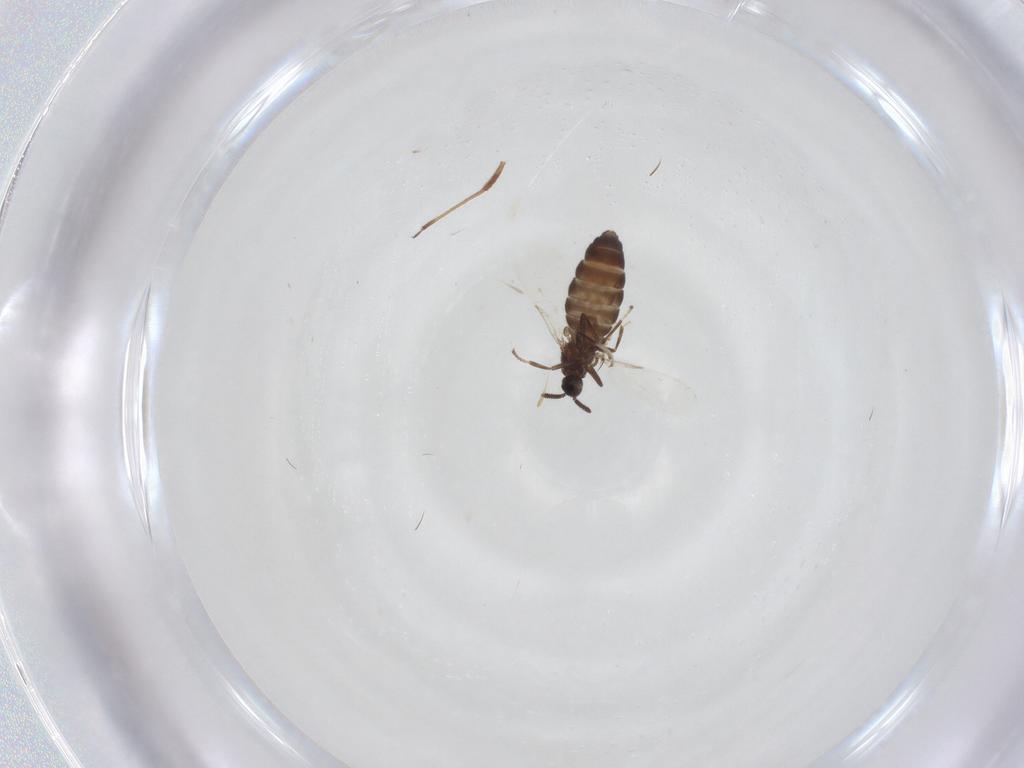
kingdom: Animalia
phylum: Arthropoda
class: Insecta
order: Diptera
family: Scatopsidae
